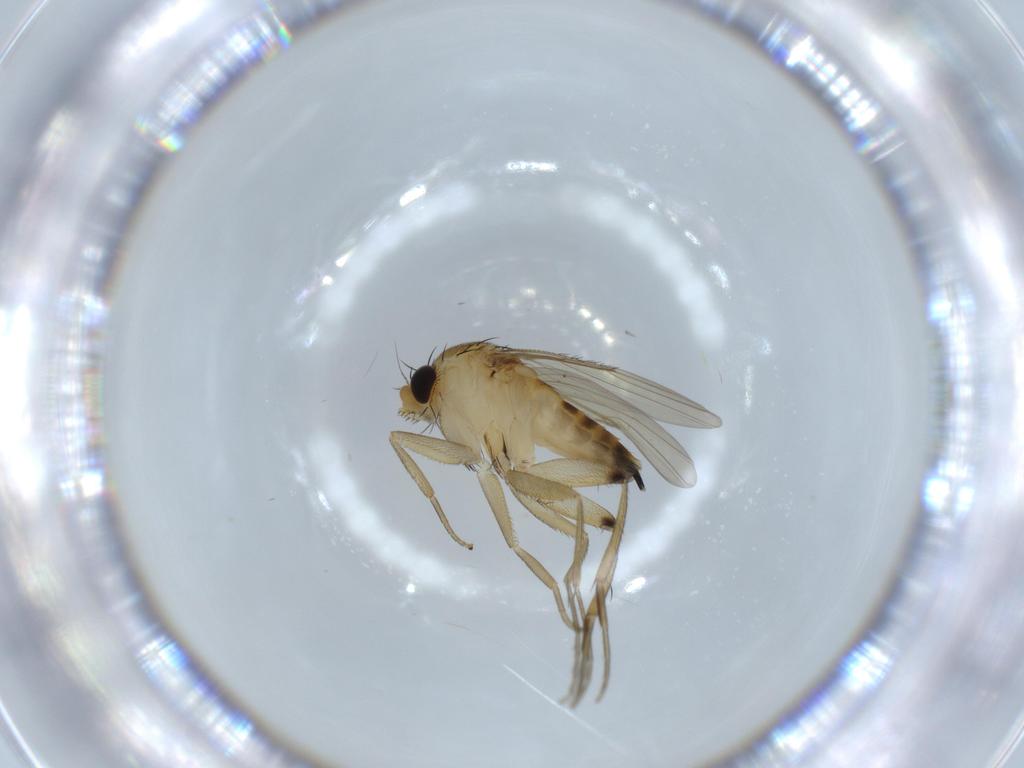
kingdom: Animalia
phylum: Arthropoda
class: Insecta
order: Diptera
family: Phoridae
